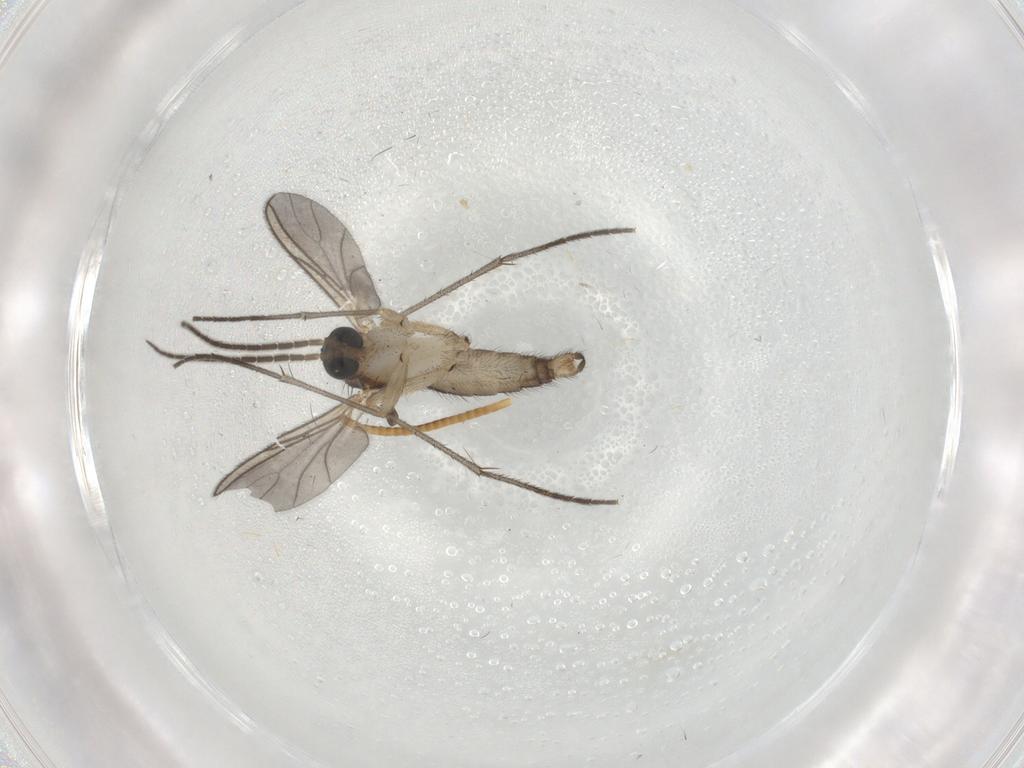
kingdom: Animalia
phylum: Arthropoda
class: Insecta
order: Diptera
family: Sciaridae
